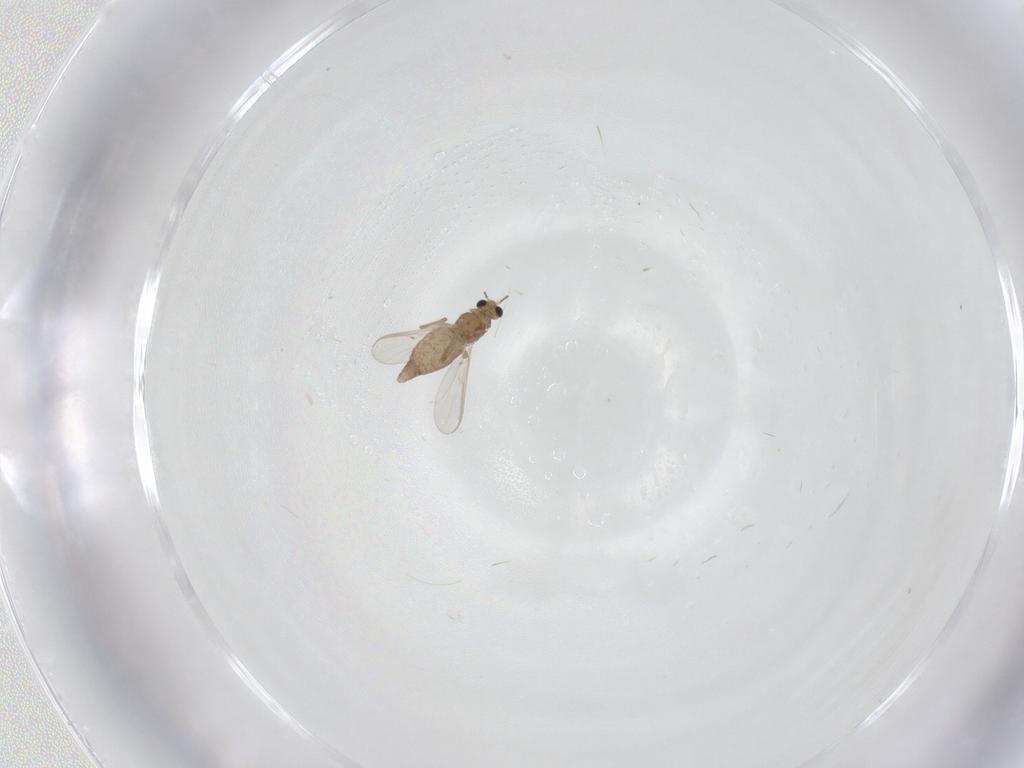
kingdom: Animalia
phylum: Arthropoda
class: Insecta
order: Diptera
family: Chironomidae
